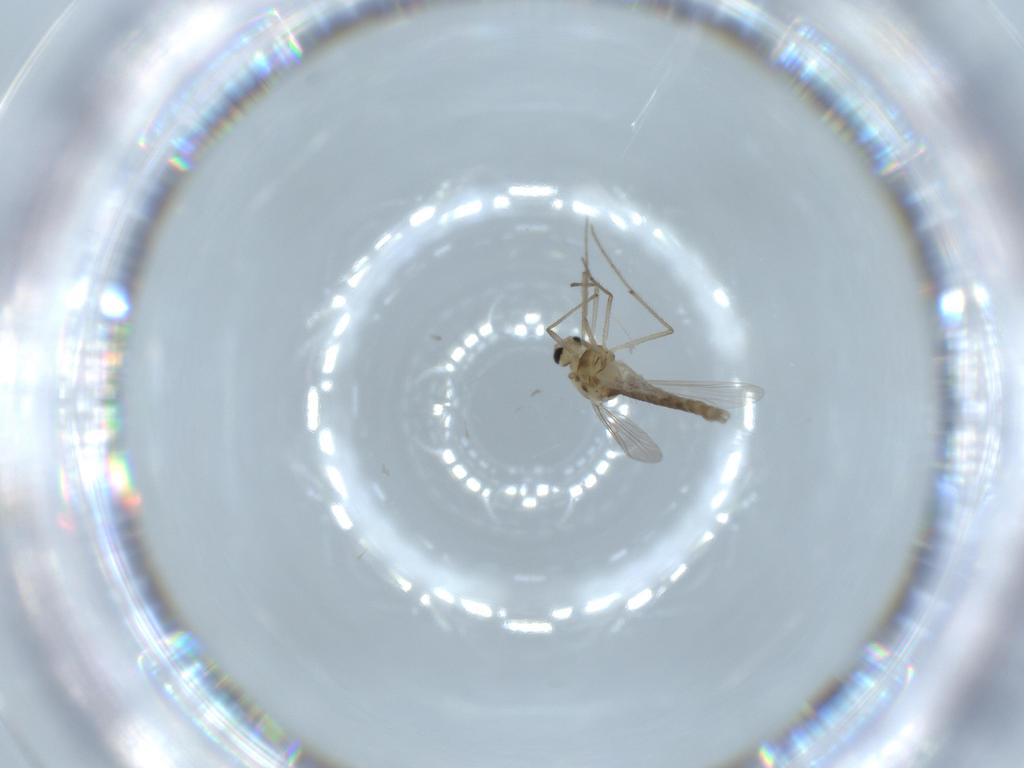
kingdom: Animalia
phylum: Arthropoda
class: Insecta
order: Diptera
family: Chironomidae
